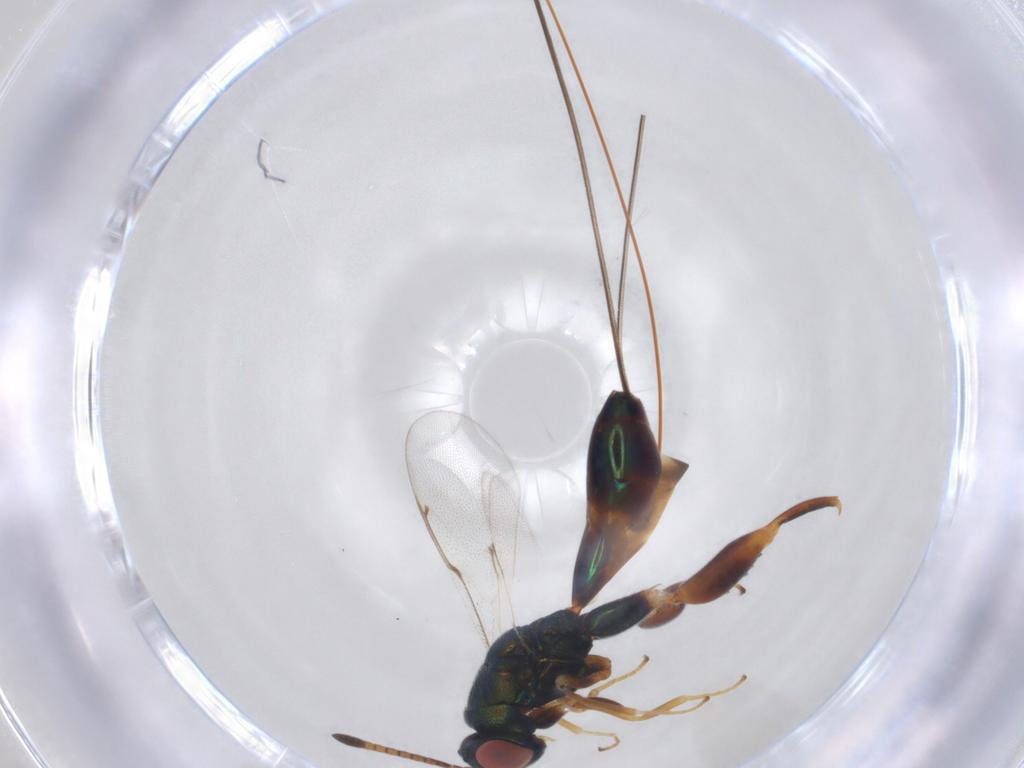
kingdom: Animalia
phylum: Arthropoda
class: Insecta
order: Hymenoptera
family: Torymidae
